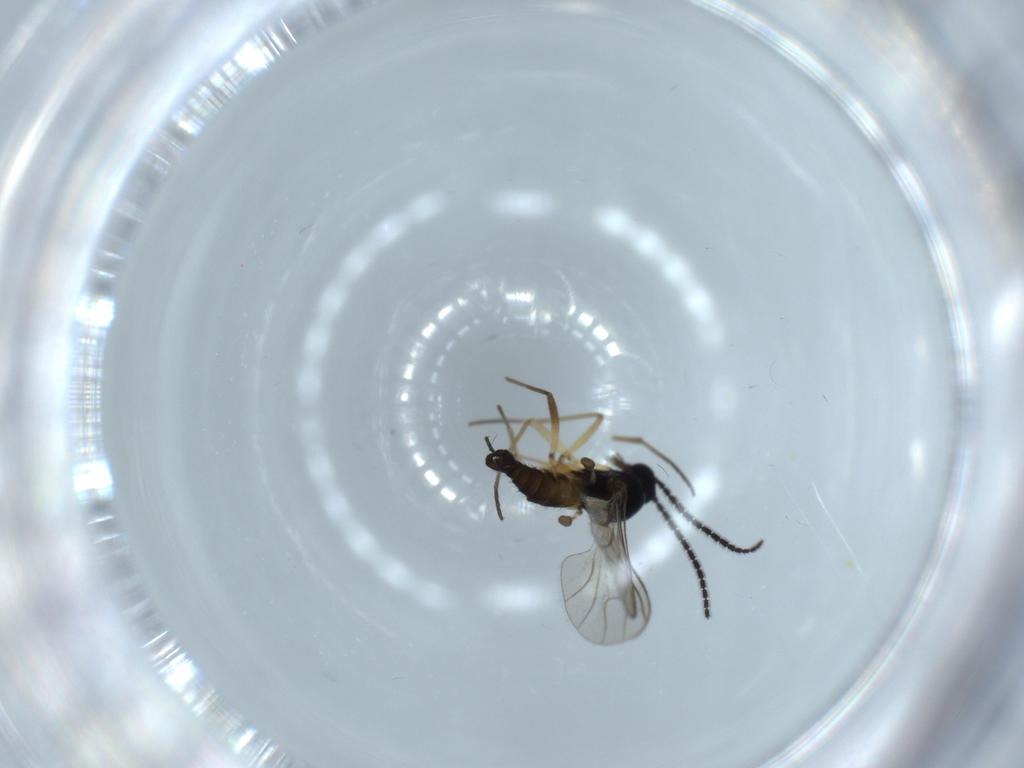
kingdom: Animalia
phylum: Arthropoda
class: Insecta
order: Diptera
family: Sciaridae
